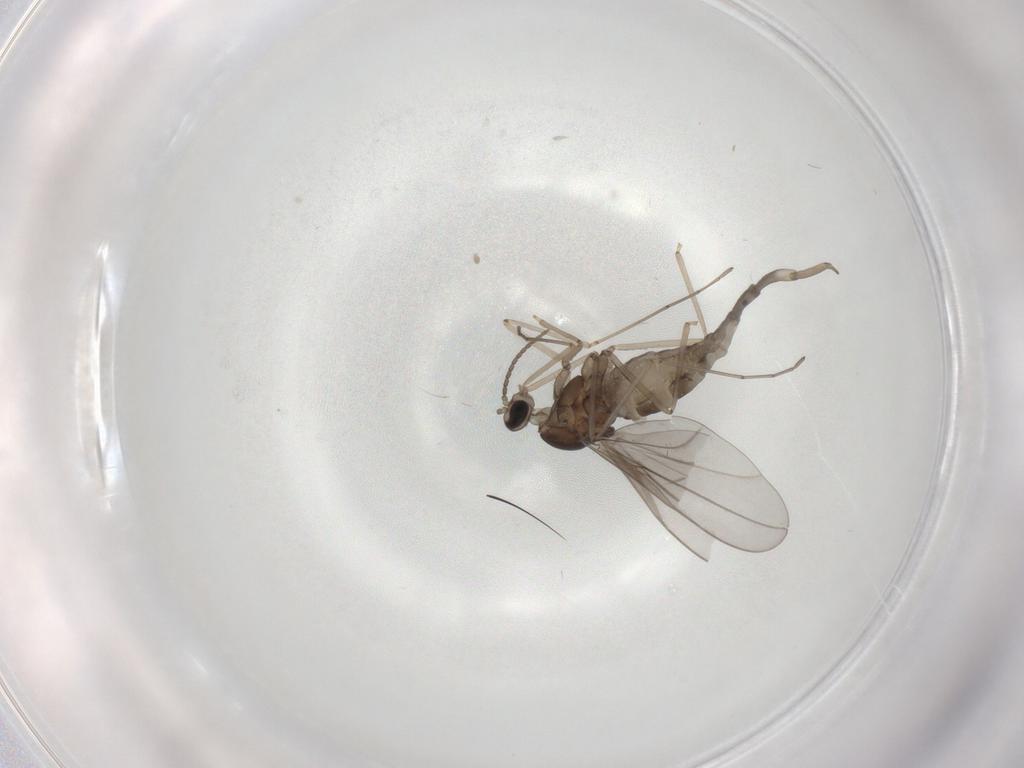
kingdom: Animalia
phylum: Arthropoda
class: Insecta
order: Diptera
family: Cecidomyiidae
